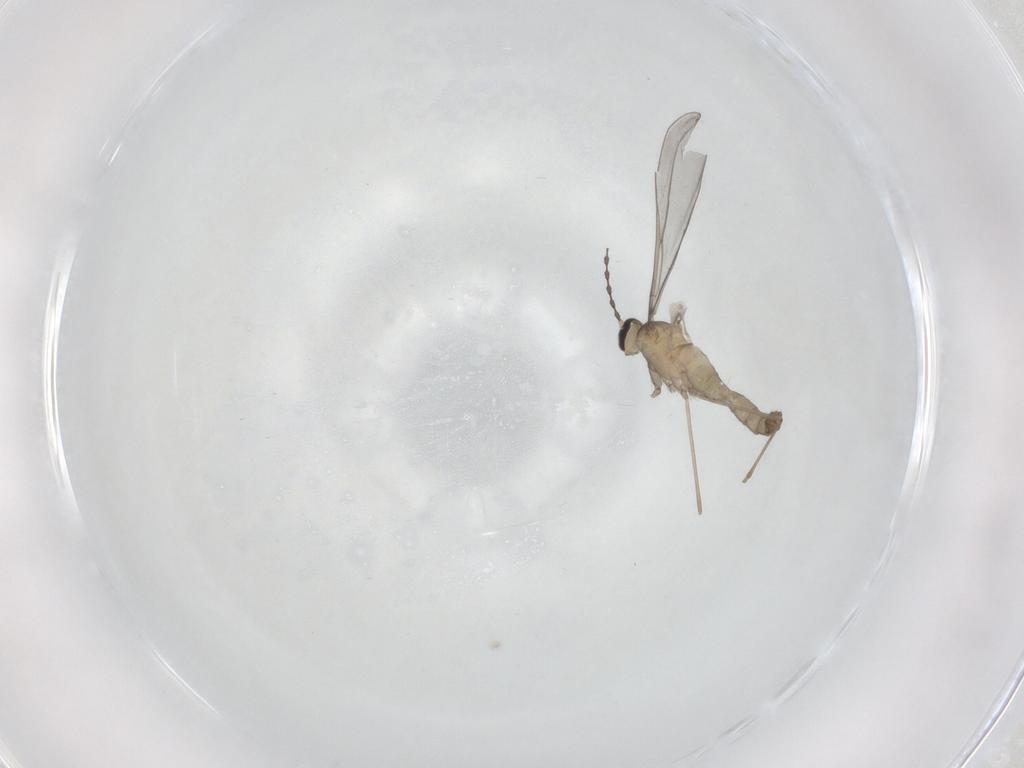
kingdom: Animalia
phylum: Arthropoda
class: Insecta
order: Diptera
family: Cecidomyiidae
